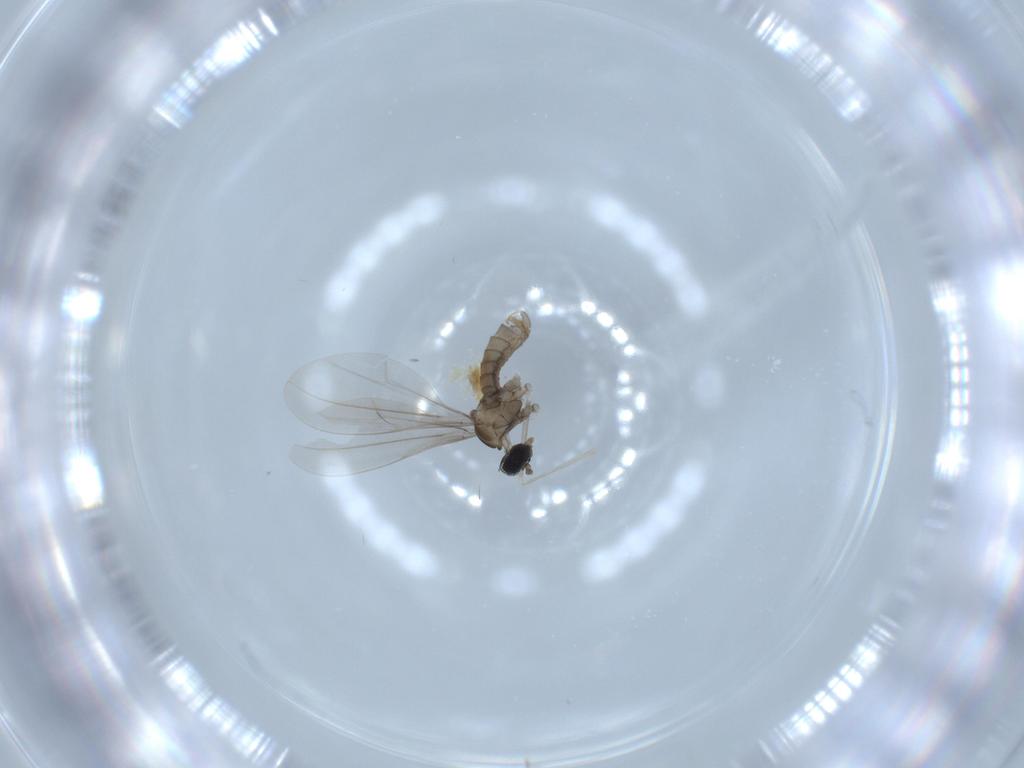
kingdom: Animalia
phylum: Arthropoda
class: Insecta
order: Diptera
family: Cecidomyiidae
